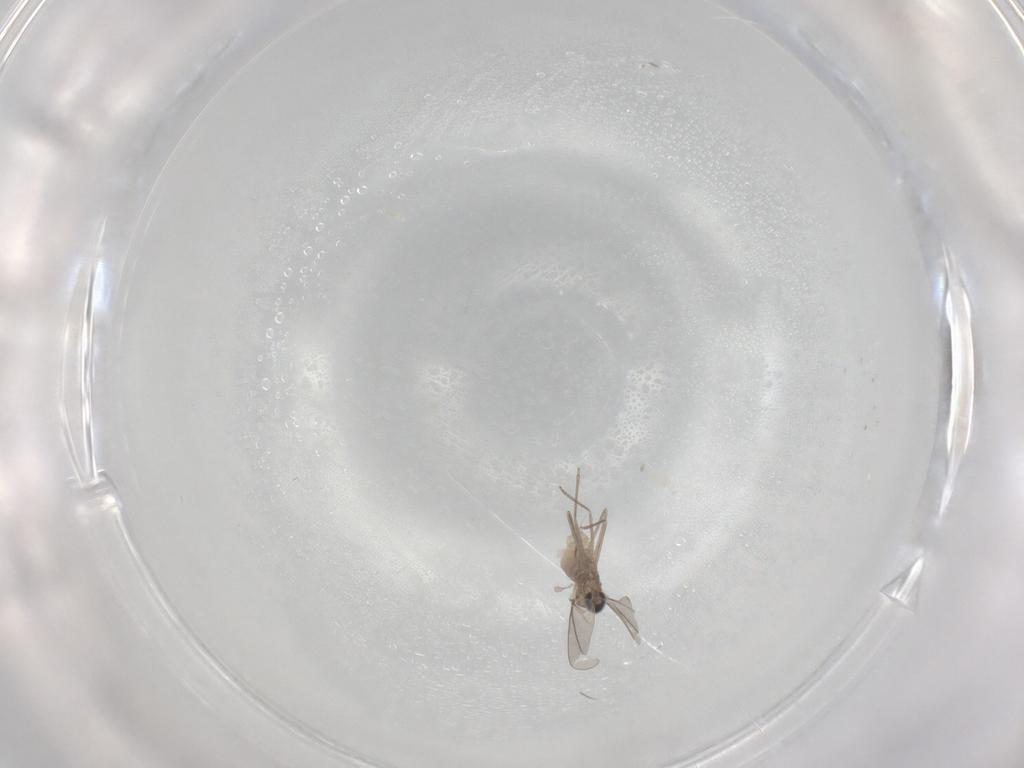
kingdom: Animalia
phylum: Arthropoda
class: Insecta
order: Diptera
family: Cecidomyiidae
